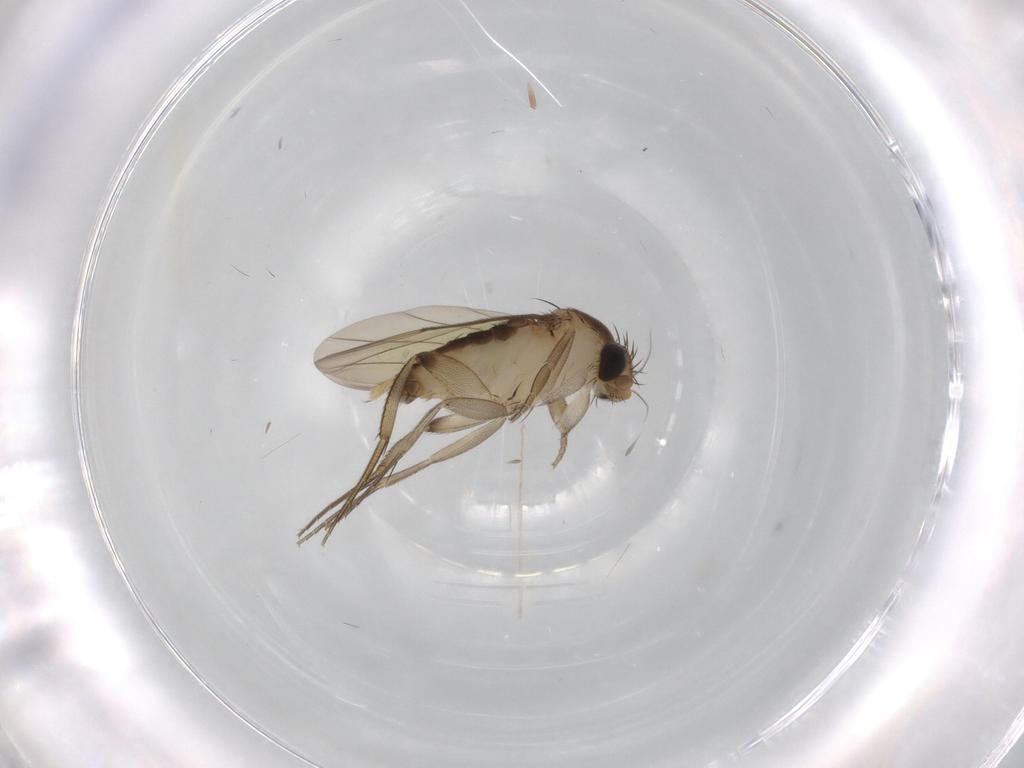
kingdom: Animalia
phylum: Arthropoda
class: Insecta
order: Diptera
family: Phoridae
